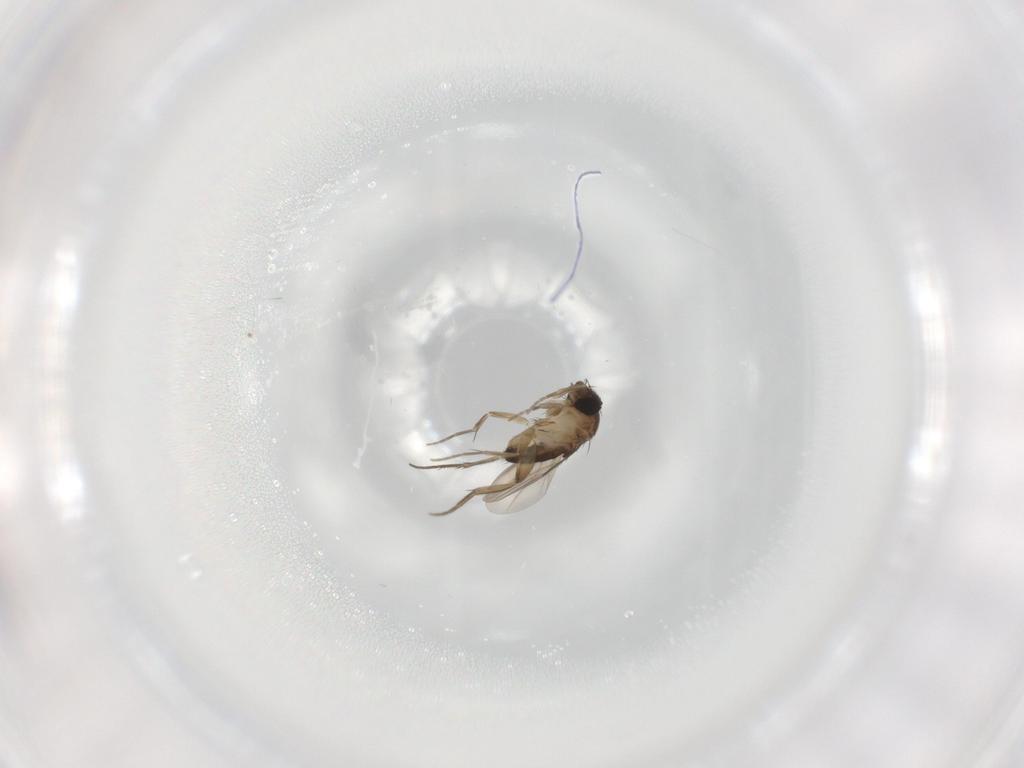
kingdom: Animalia
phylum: Arthropoda
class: Insecta
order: Diptera
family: Phoridae
